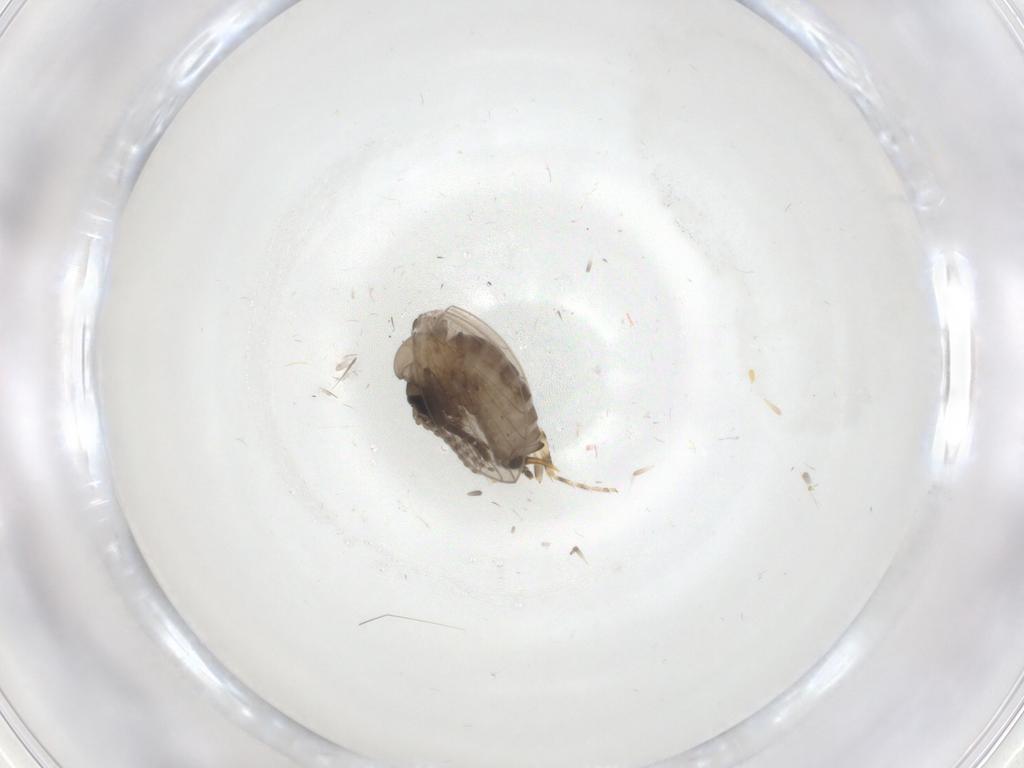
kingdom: Animalia
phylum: Arthropoda
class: Insecta
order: Diptera
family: Psychodidae
